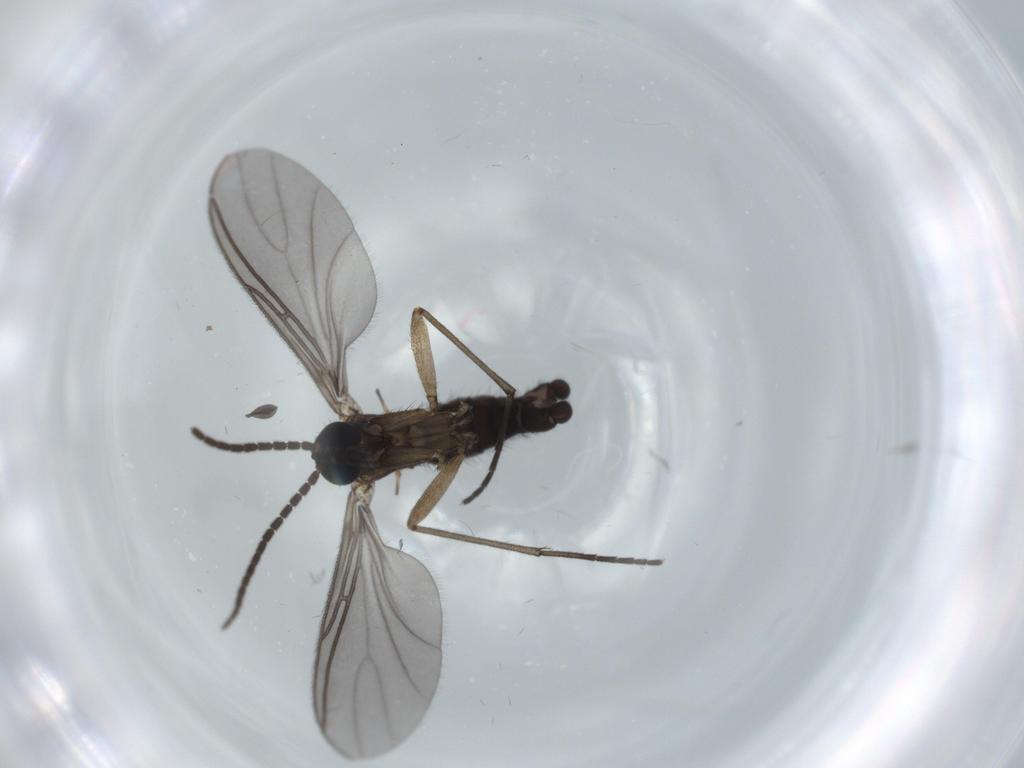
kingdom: Animalia
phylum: Arthropoda
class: Insecta
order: Diptera
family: Sciaridae
